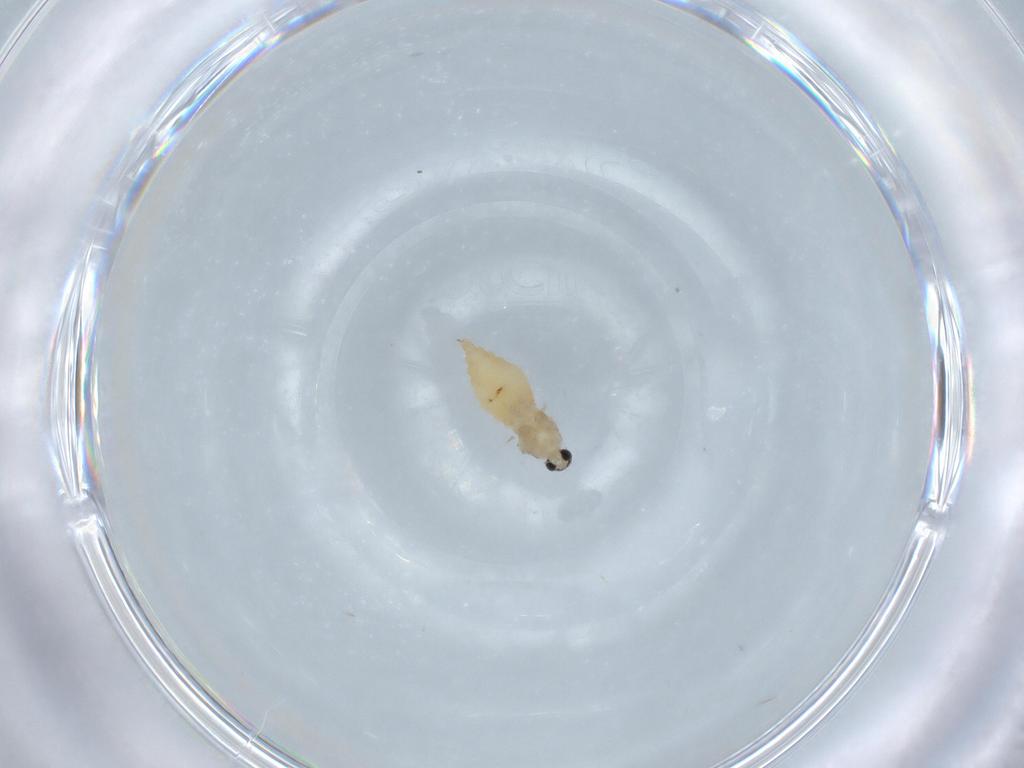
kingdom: Animalia
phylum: Arthropoda
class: Insecta
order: Diptera
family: Cecidomyiidae
